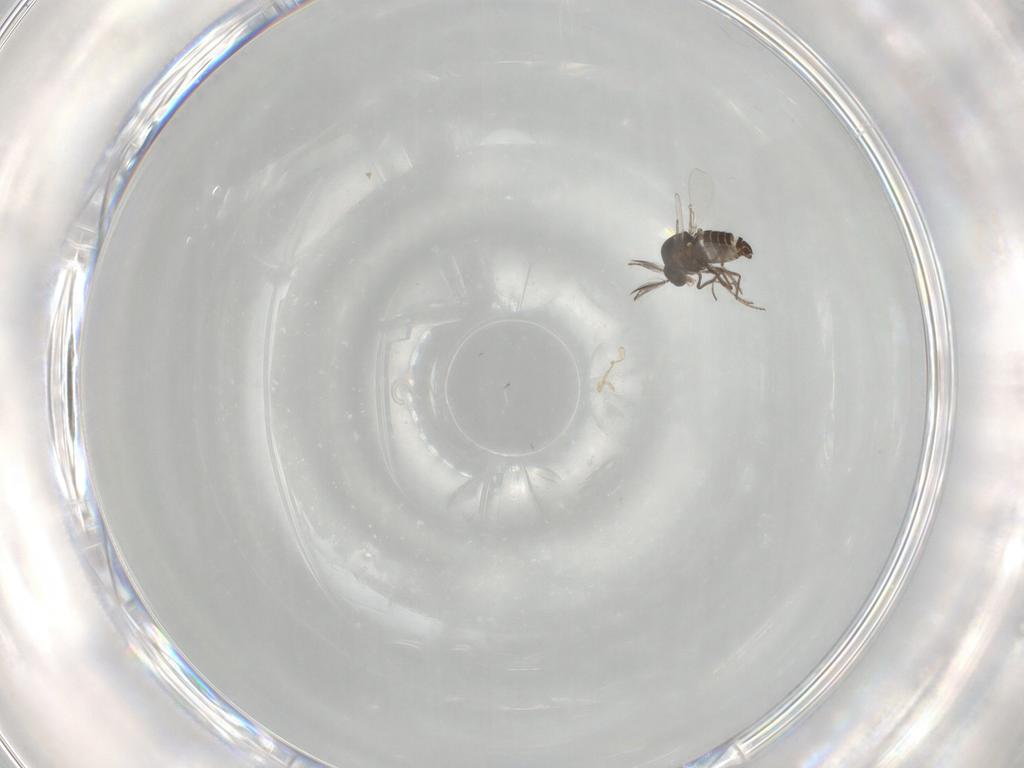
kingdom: Animalia
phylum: Arthropoda
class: Insecta
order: Diptera
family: Ceratopogonidae
